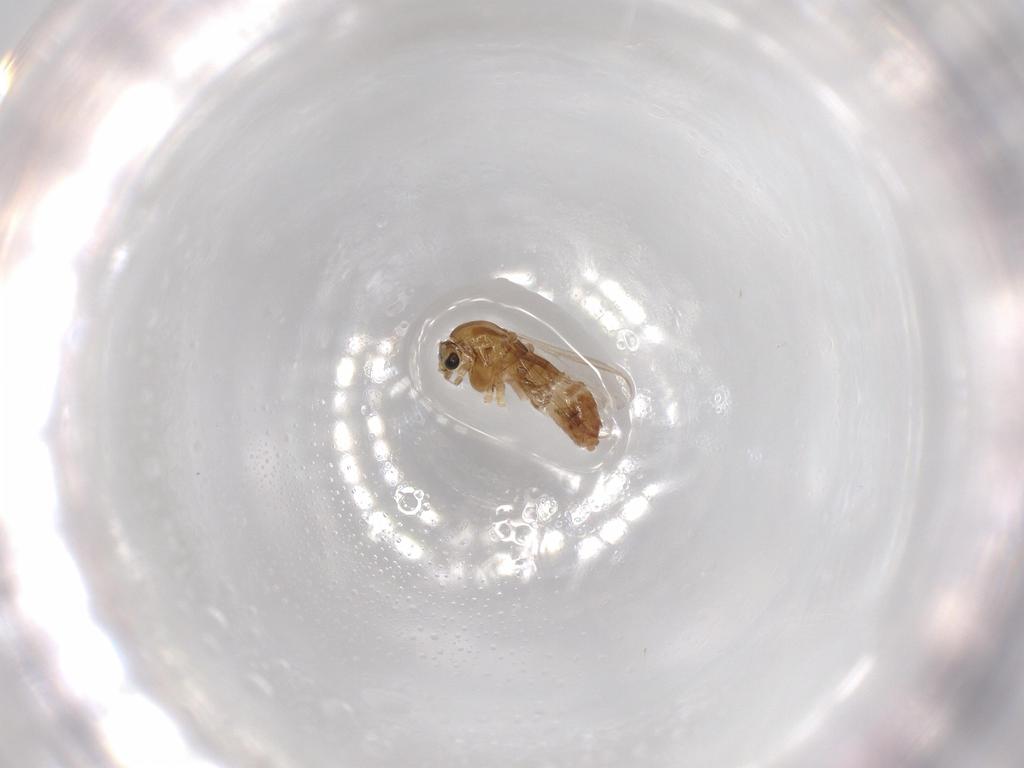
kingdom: Animalia
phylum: Arthropoda
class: Insecta
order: Diptera
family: Chironomidae
